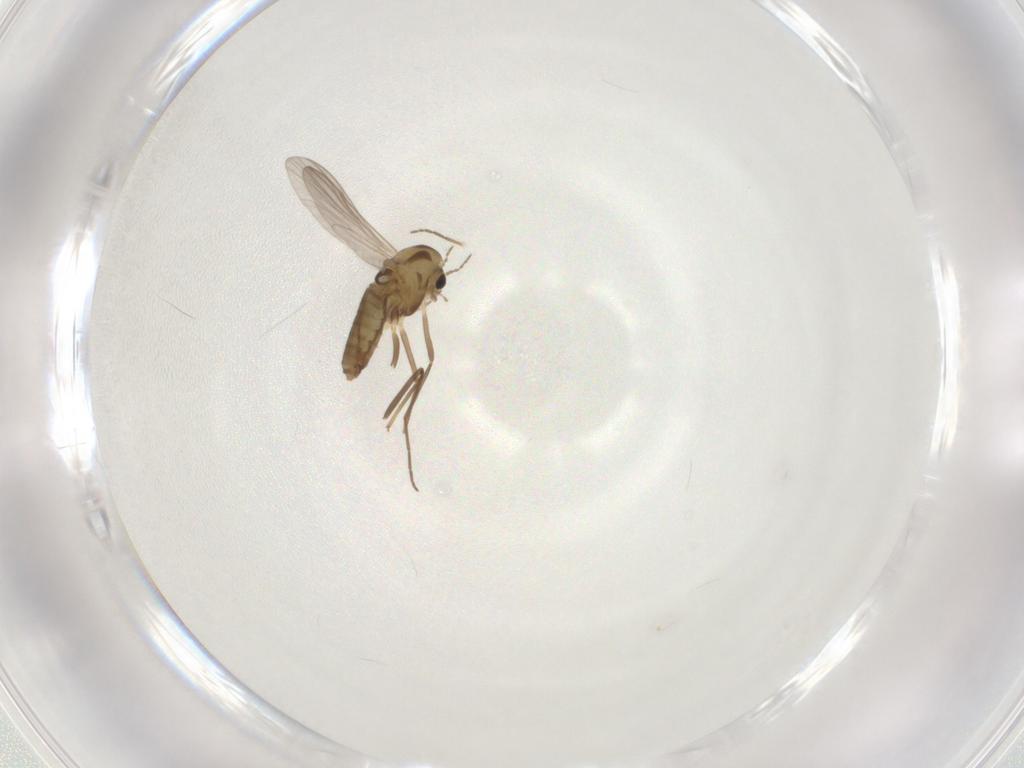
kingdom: Animalia
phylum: Arthropoda
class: Insecta
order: Diptera
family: Chironomidae
